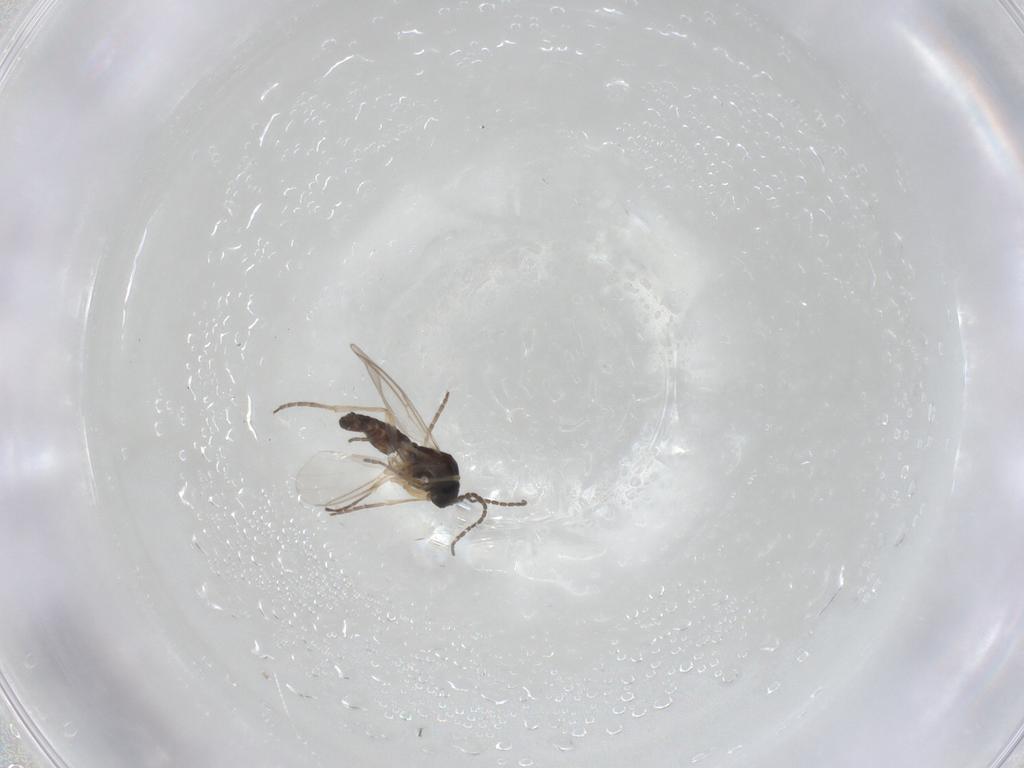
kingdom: Animalia
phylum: Arthropoda
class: Insecta
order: Diptera
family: Sciaridae
